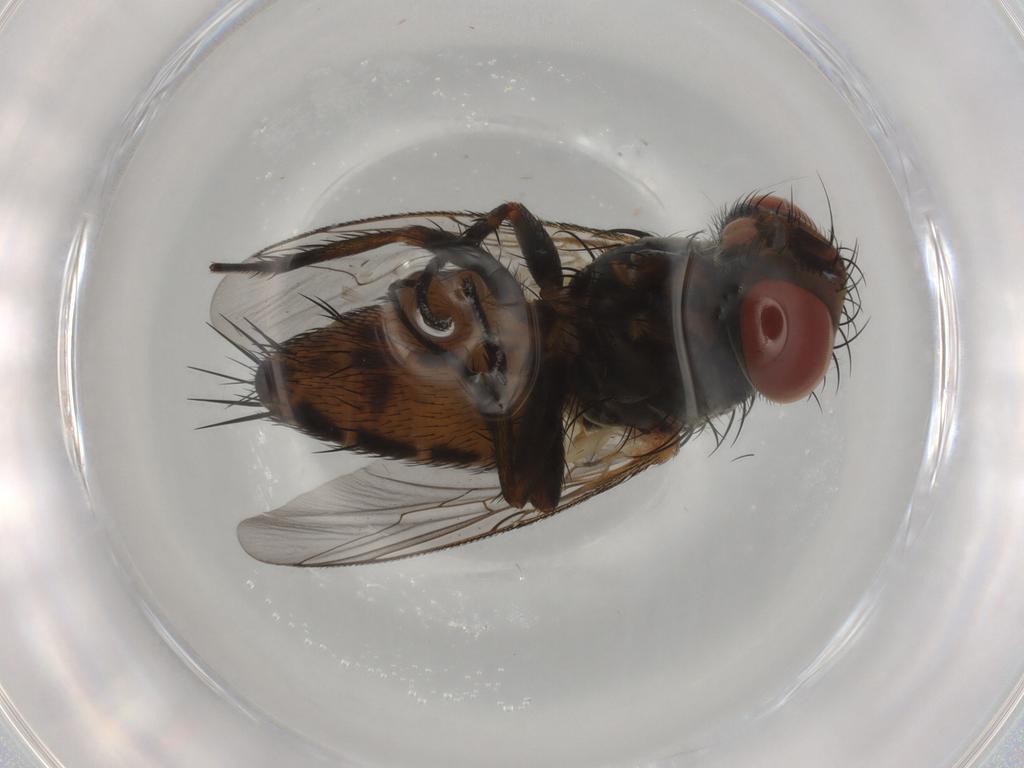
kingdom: Animalia
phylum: Arthropoda
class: Insecta
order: Diptera
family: Sarcophagidae
